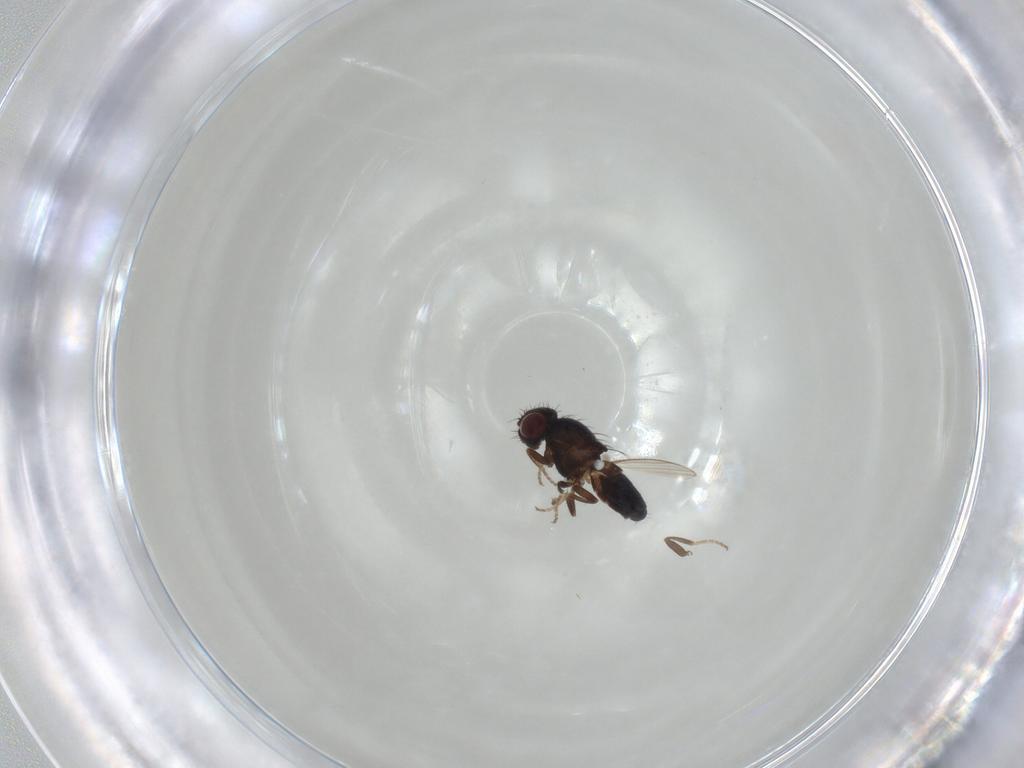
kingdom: Animalia
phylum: Arthropoda
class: Insecta
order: Diptera
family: Carnidae
